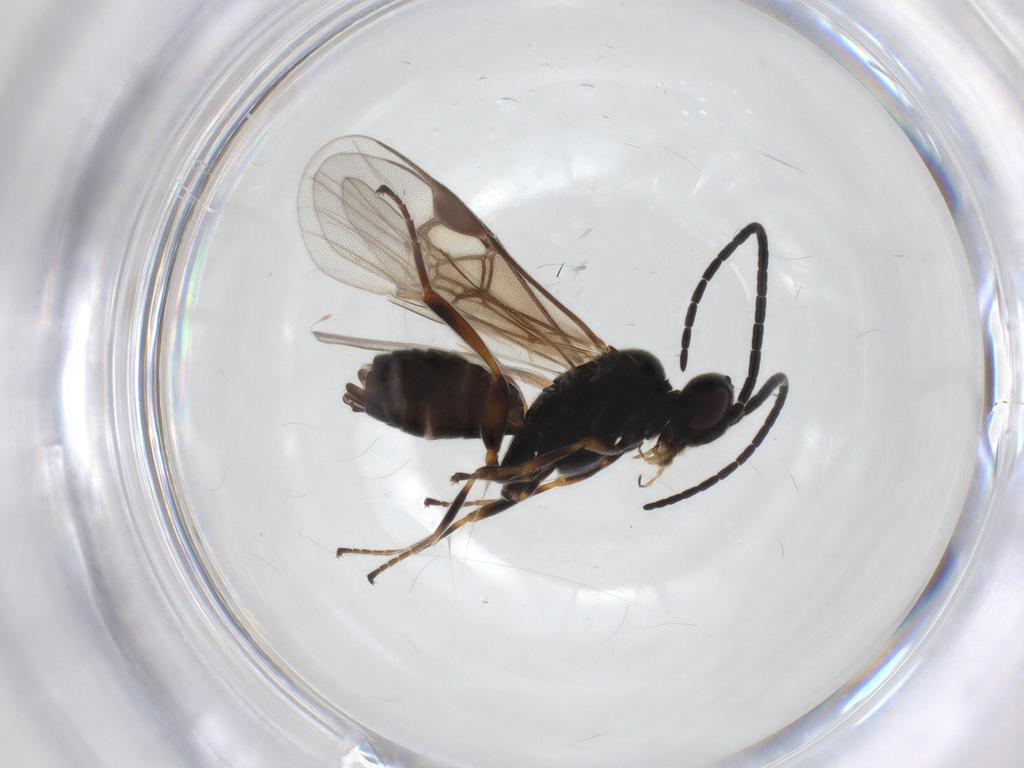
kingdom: Animalia
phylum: Arthropoda
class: Insecta
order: Hymenoptera
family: Braconidae
